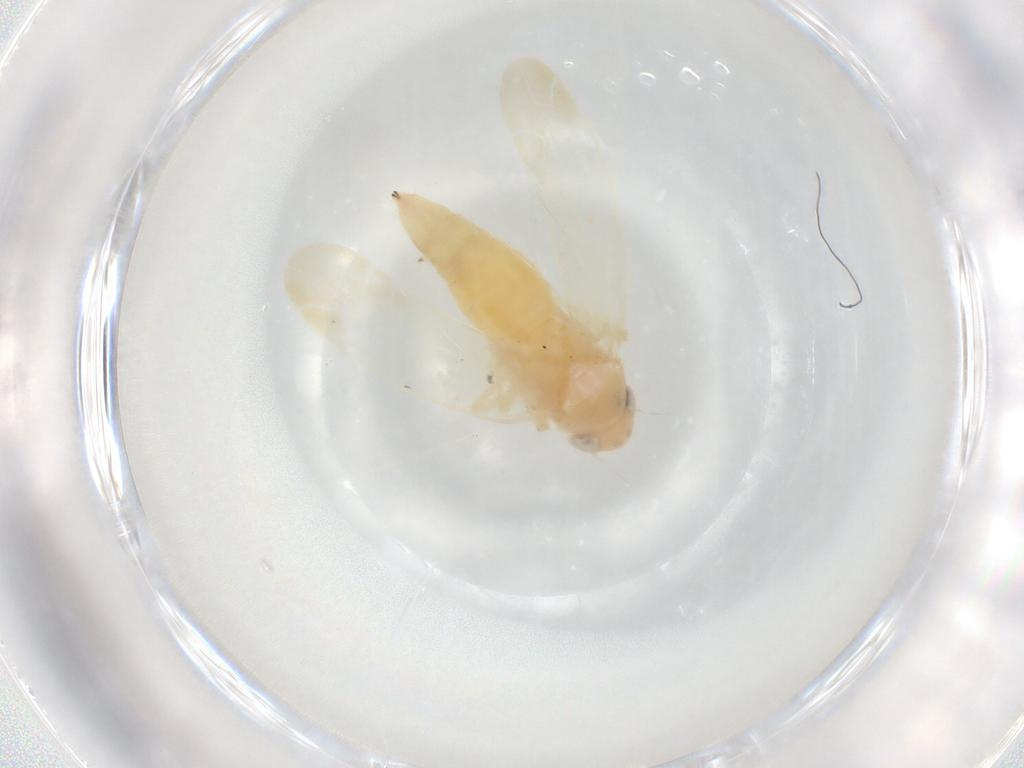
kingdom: Animalia
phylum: Arthropoda
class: Insecta
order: Hemiptera
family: Cicadellidae
